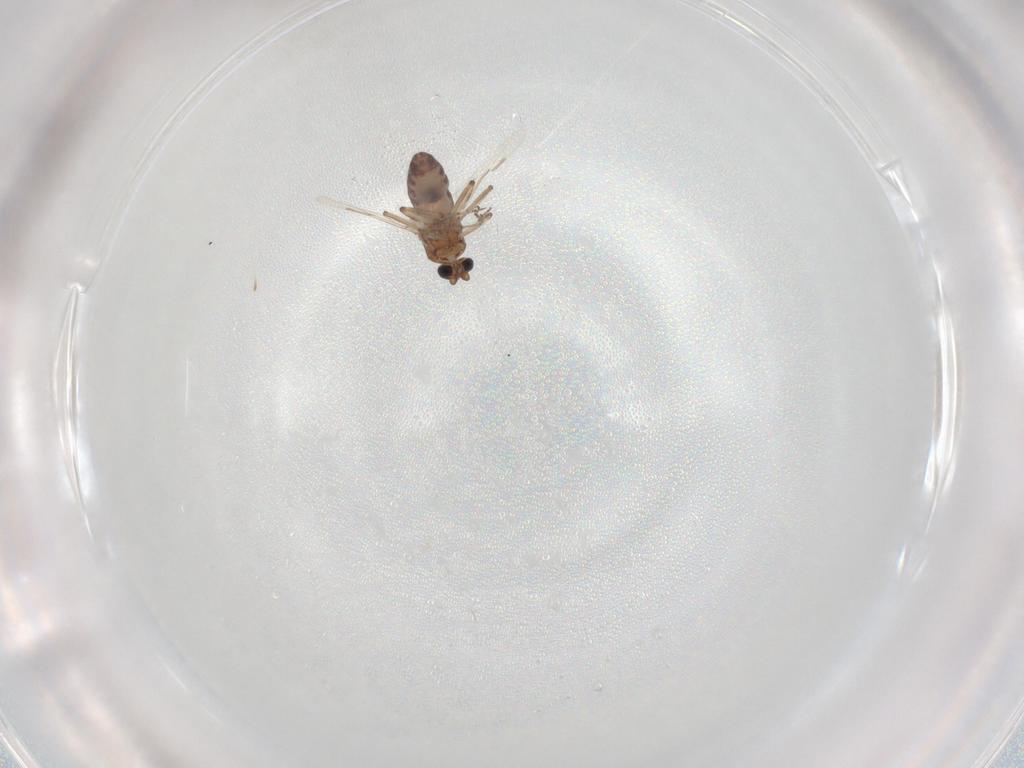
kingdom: Animalia
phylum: Arthropoda
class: Insecta
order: Diptera
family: Ceratopogonidae
